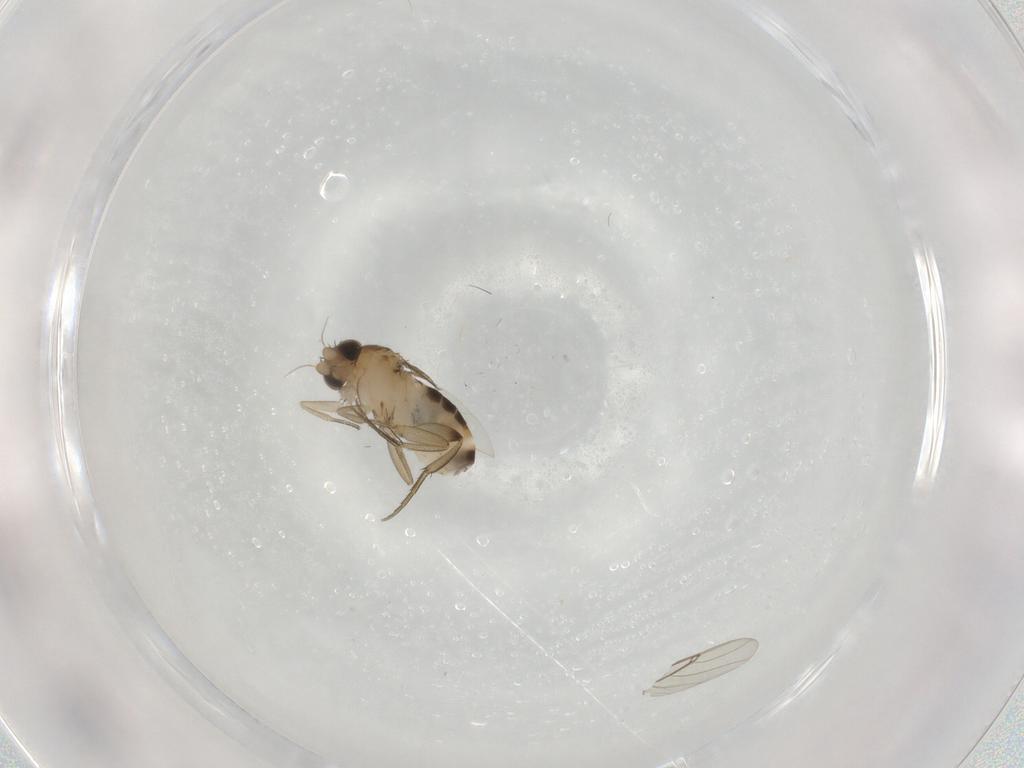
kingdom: Animalia
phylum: Arthropoda
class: Insecta
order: Diptera
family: Phoridae
